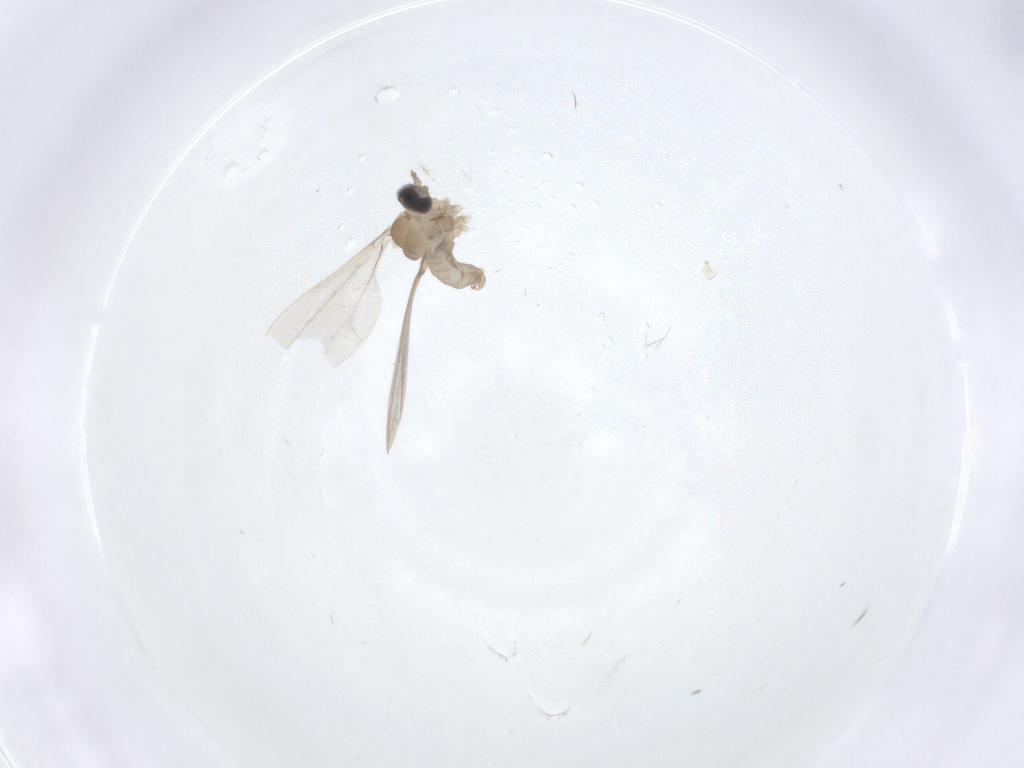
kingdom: Animalia
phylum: Arthropoda
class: Insecta
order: Diptera
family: Cecidomyiidae
